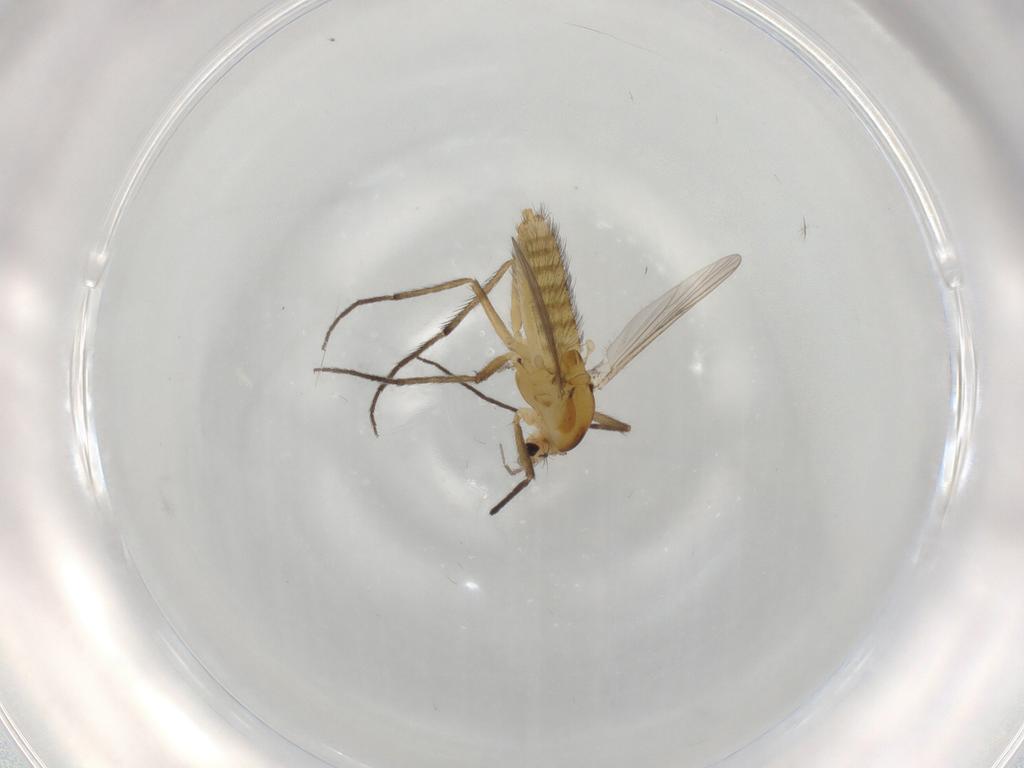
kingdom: Animalia
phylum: Arthropoda
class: Insecta
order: Diptera
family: Chironomidae
